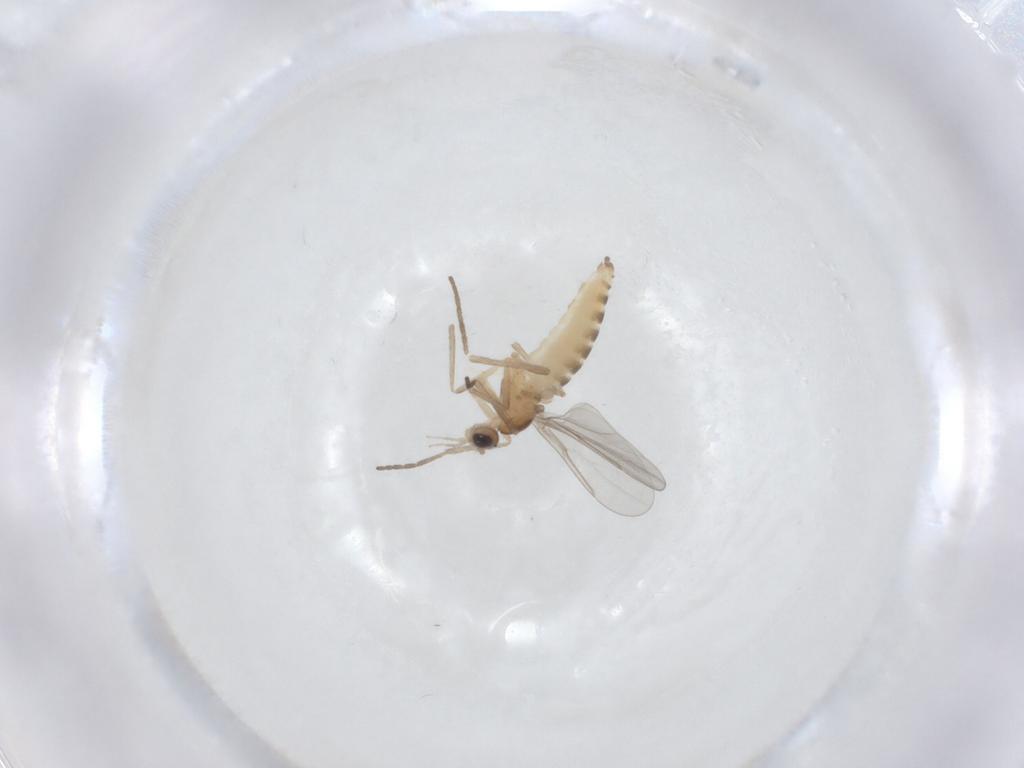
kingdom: Animalia
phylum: Arthropoda
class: Insecta
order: Diptera
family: Cecidomyiidae
